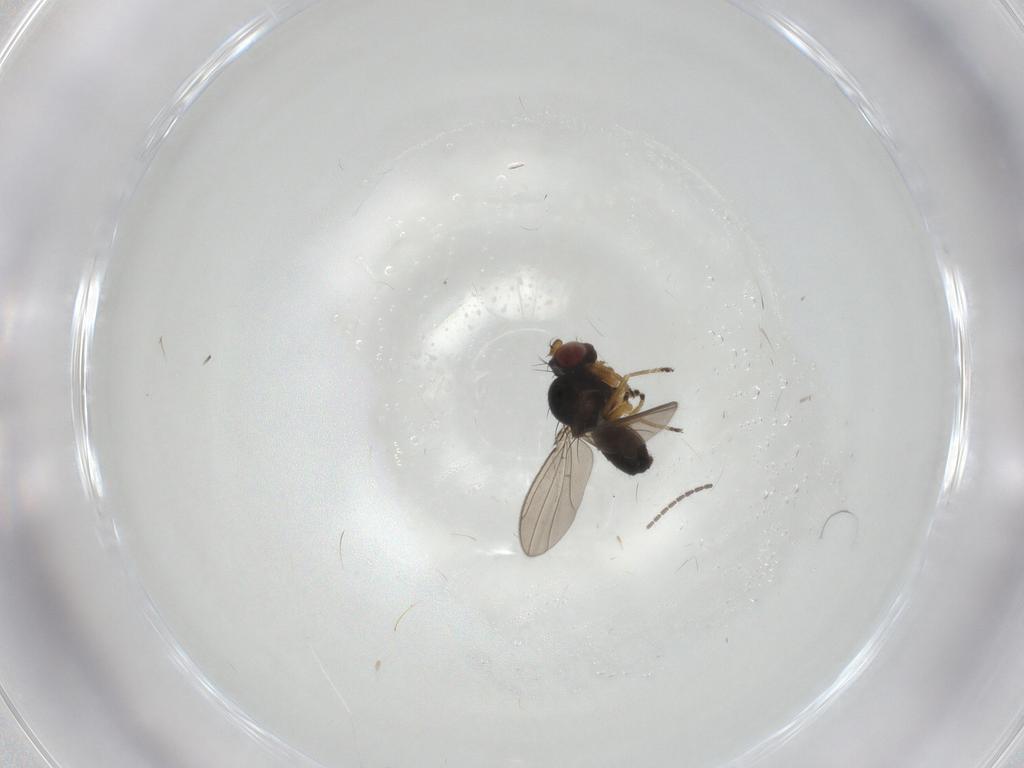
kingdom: Animalia
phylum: Arthropoda
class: Insecta
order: Diptera
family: Ephydridae
